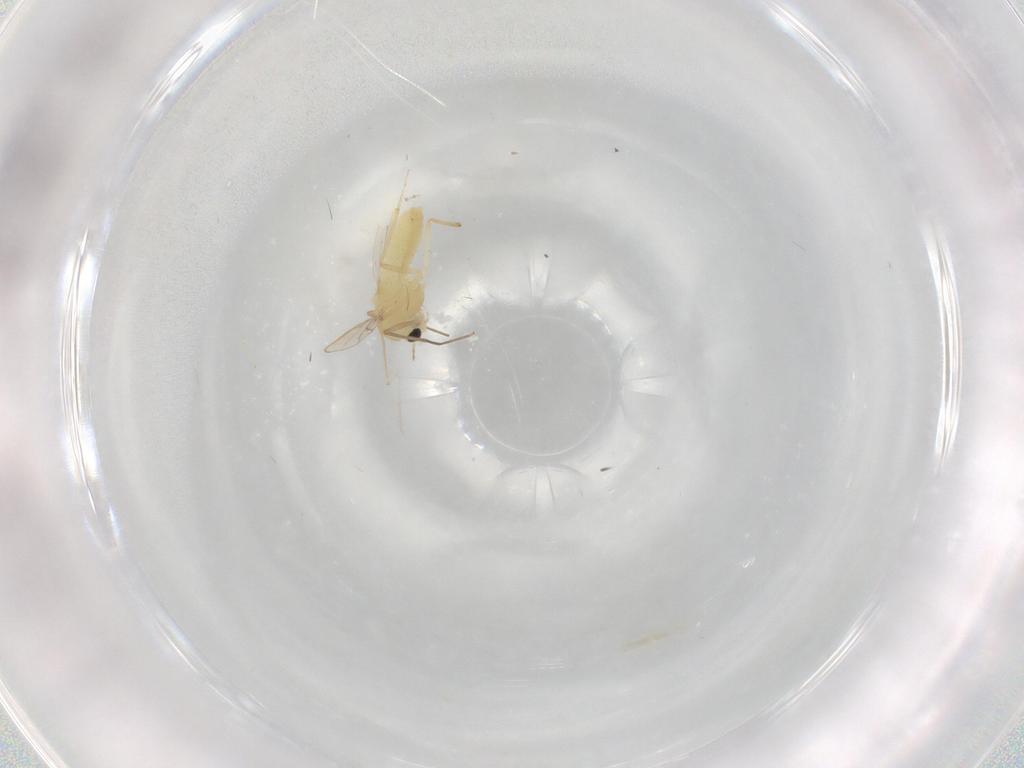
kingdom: Animalia
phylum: Arthropoda
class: Insecta
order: Diptera
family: Chironomidae
